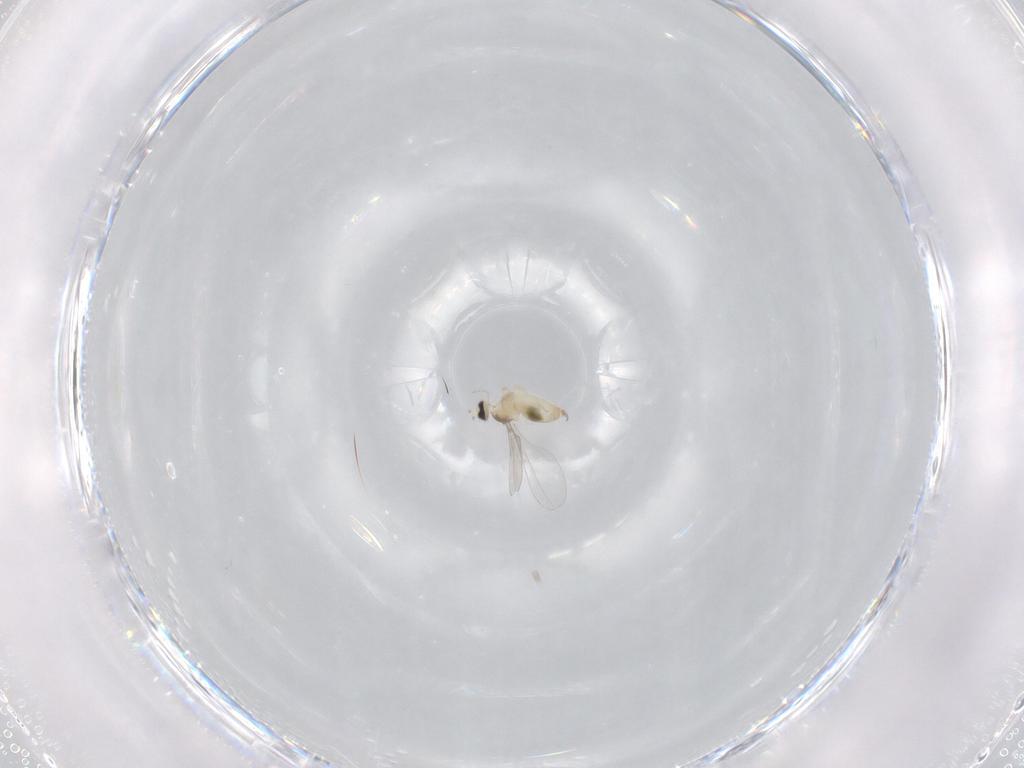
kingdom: Animalia
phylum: Arthropoda
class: Insecta
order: Diptera
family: Cecidomyiidae
